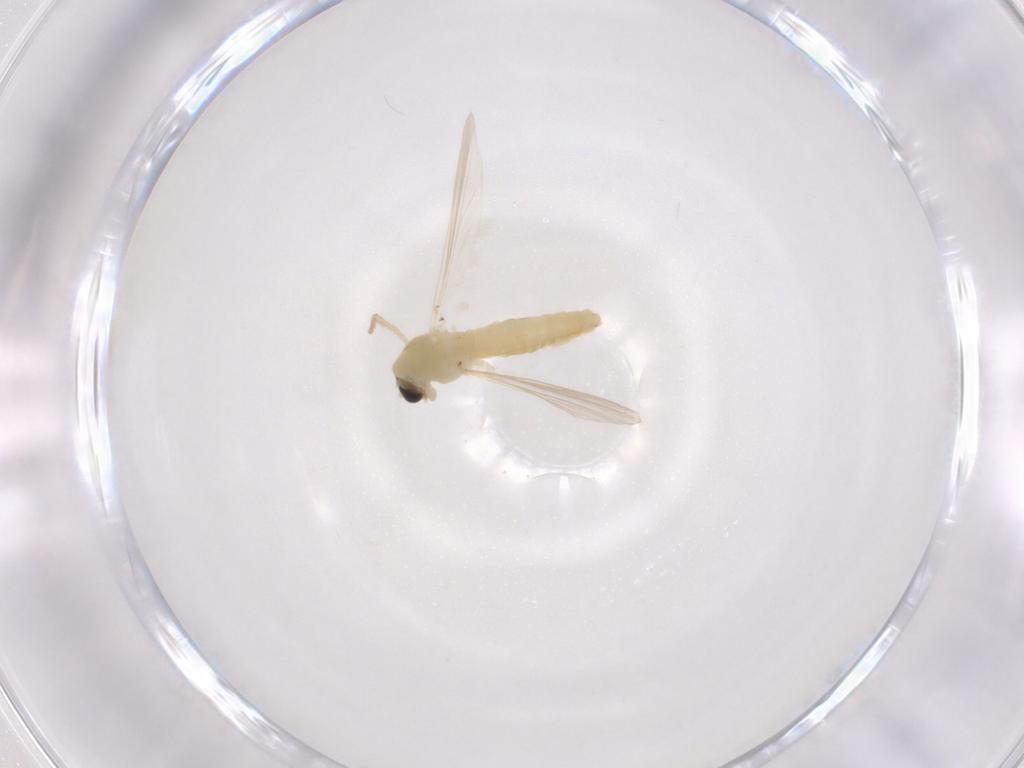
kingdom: Animalia
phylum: Arthropoda
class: Insecta
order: Diptera
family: Chironomidae
